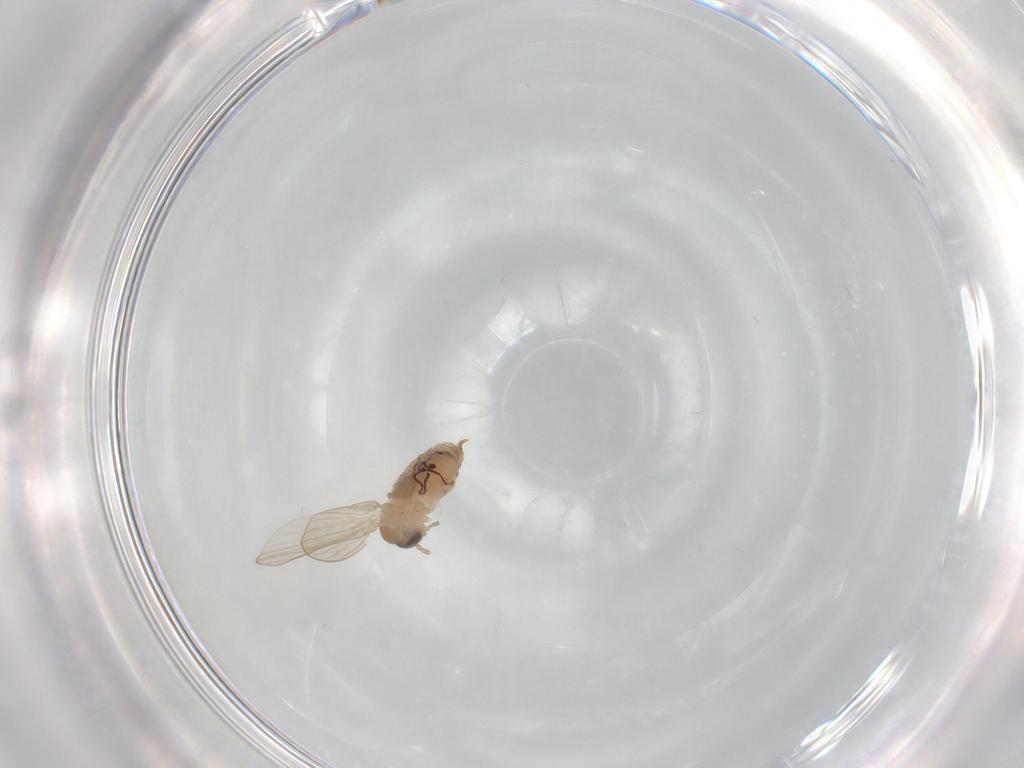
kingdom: Animalia
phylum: Arthropoda
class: Insecta
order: Diptera
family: Psychodidae
